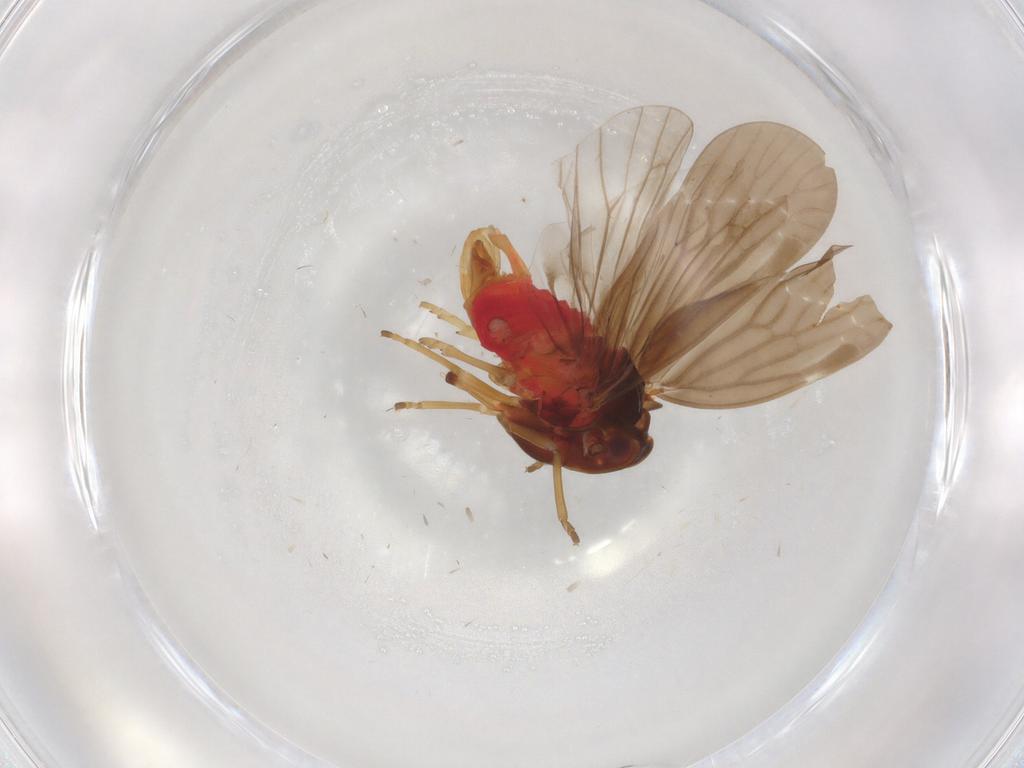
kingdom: Animalia
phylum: Arthropoda
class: Insecta
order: Hemiptera
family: Derbidae
